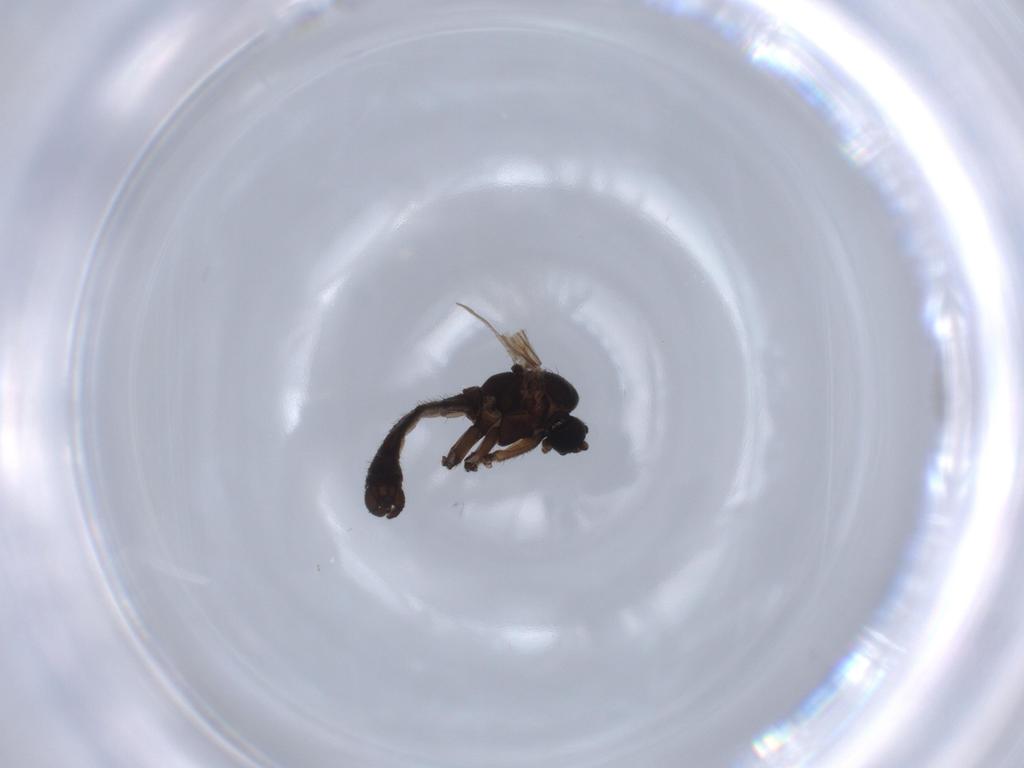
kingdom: Animalia
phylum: Arthropoda
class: Insecta
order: Diptera
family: Sciaridae
